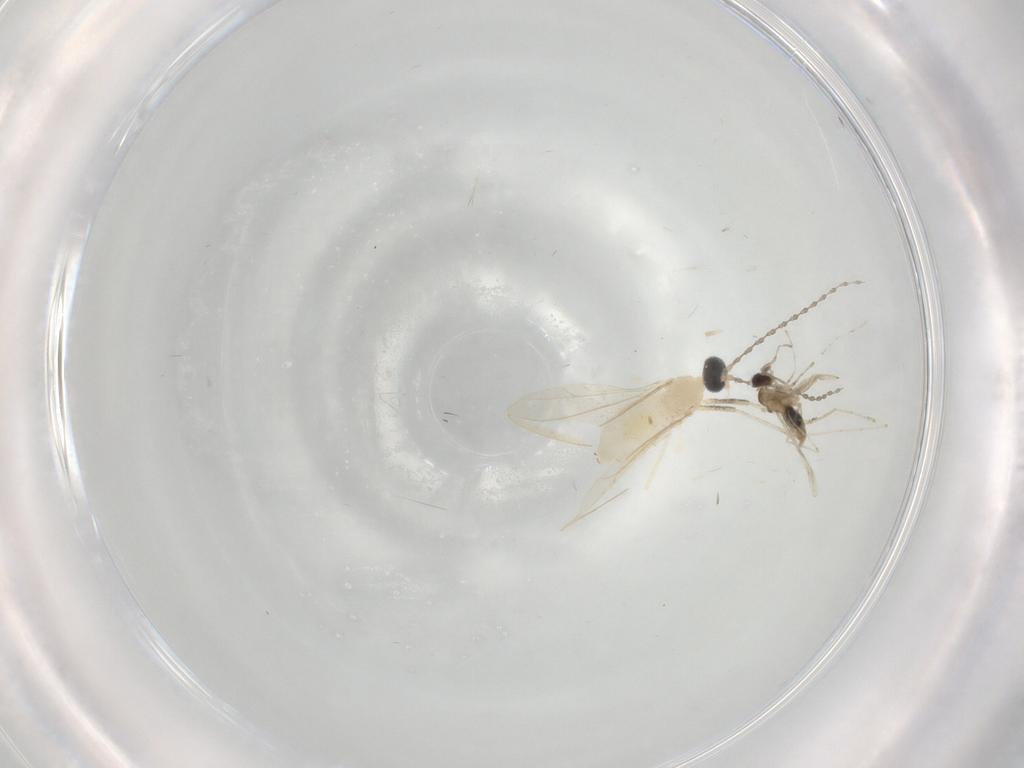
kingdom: Animalia
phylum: Arthropoda
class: Insecta
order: Diptera
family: Cecidomyiidae
